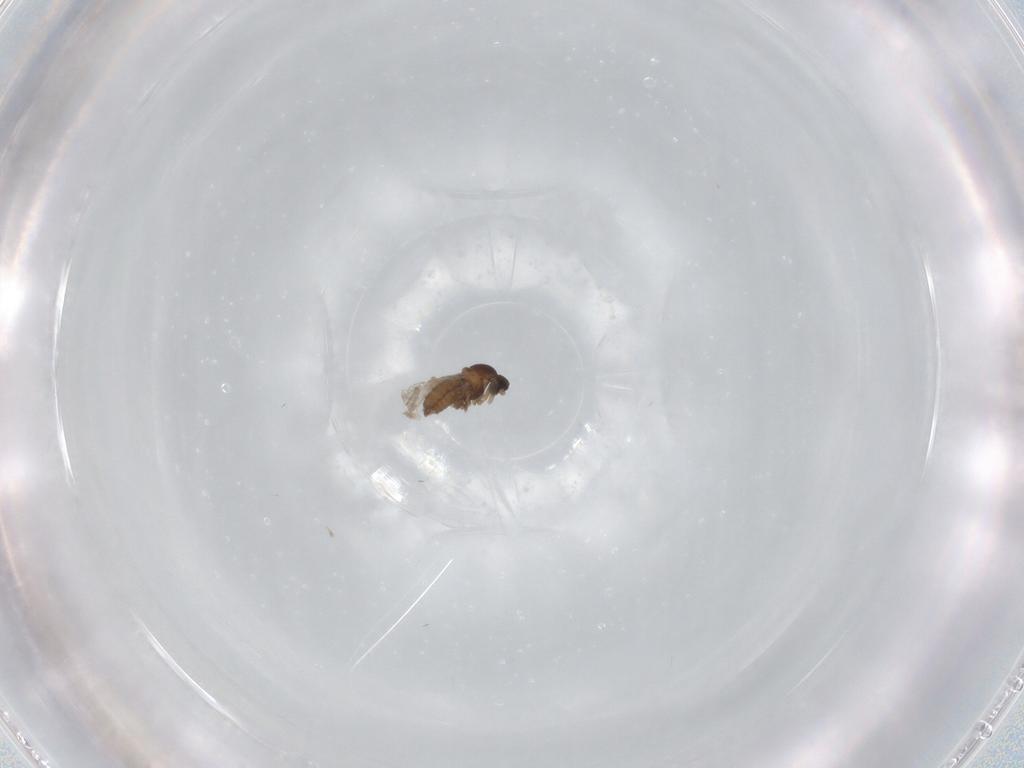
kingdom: Animalia
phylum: Arthropoda
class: Insecta
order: Diptera
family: Cecidomyiidae
